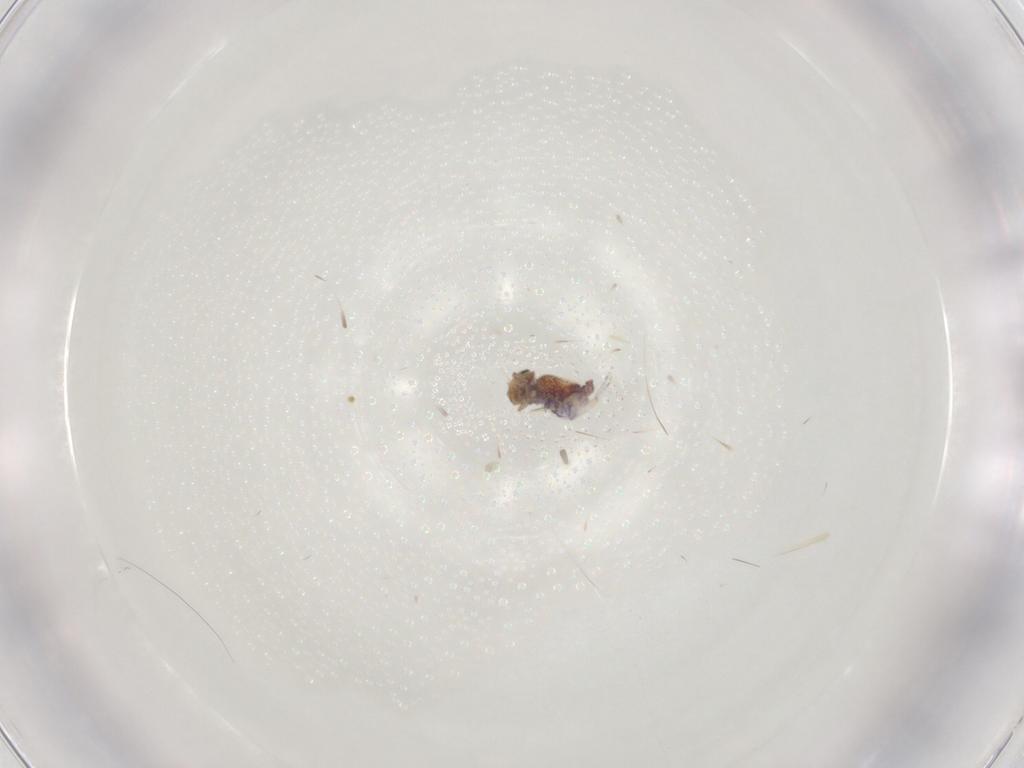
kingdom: Animalia
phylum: Arthropoda
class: Collembola
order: Symphypleona
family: Bourletiellidae
